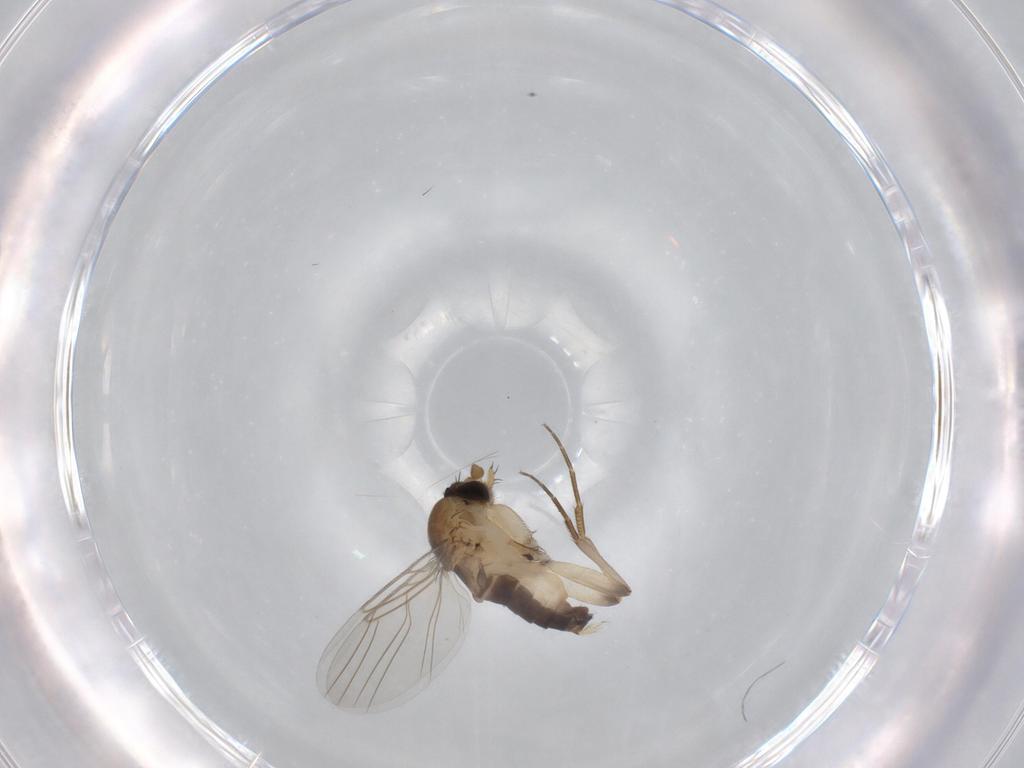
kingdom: Animalia
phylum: Arthropoda
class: Insecta
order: Diptera
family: Phoridae
